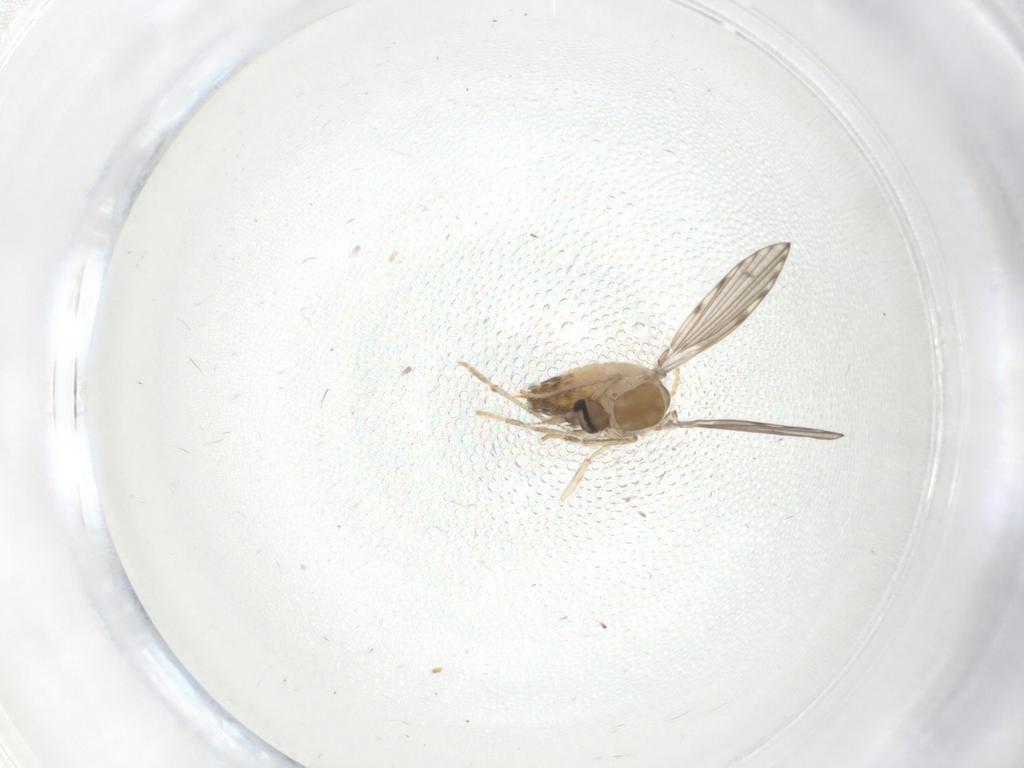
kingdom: Animalia
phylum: Arthropoda
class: Insecta
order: Diptera
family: Psychodidae
